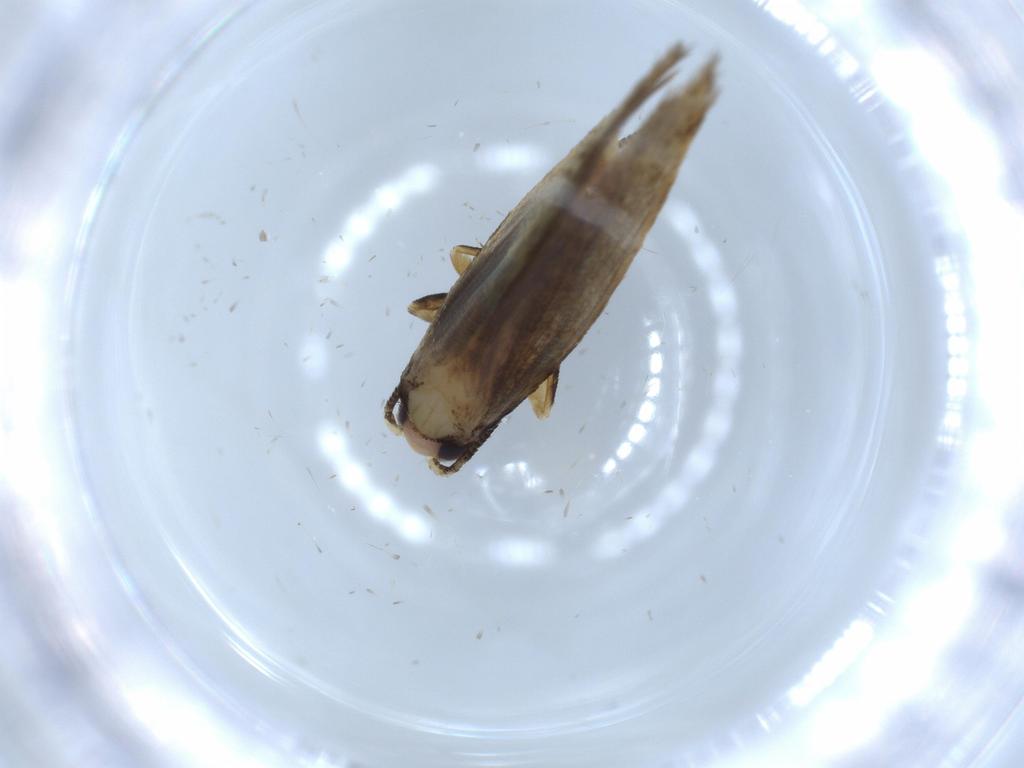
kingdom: Animalia
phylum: Arthropoda
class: Insecta
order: Lepidoptera
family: Tineidae
